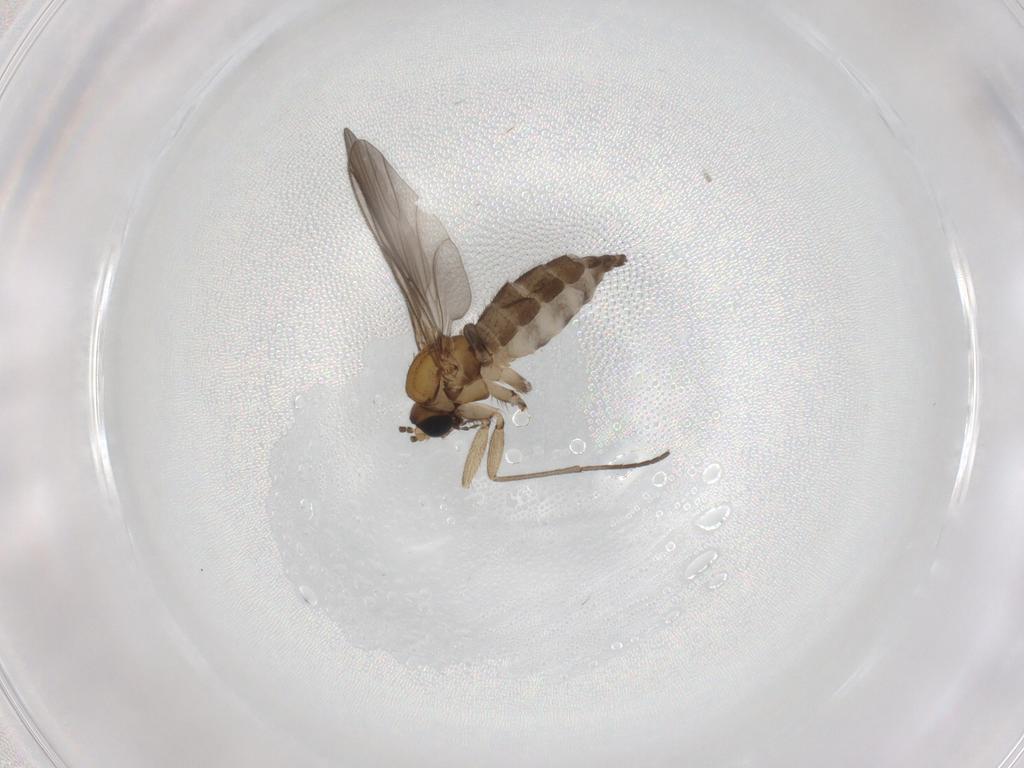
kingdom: Animalia
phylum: Arthropoda
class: Insecta
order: Diptera
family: Sciaridae
